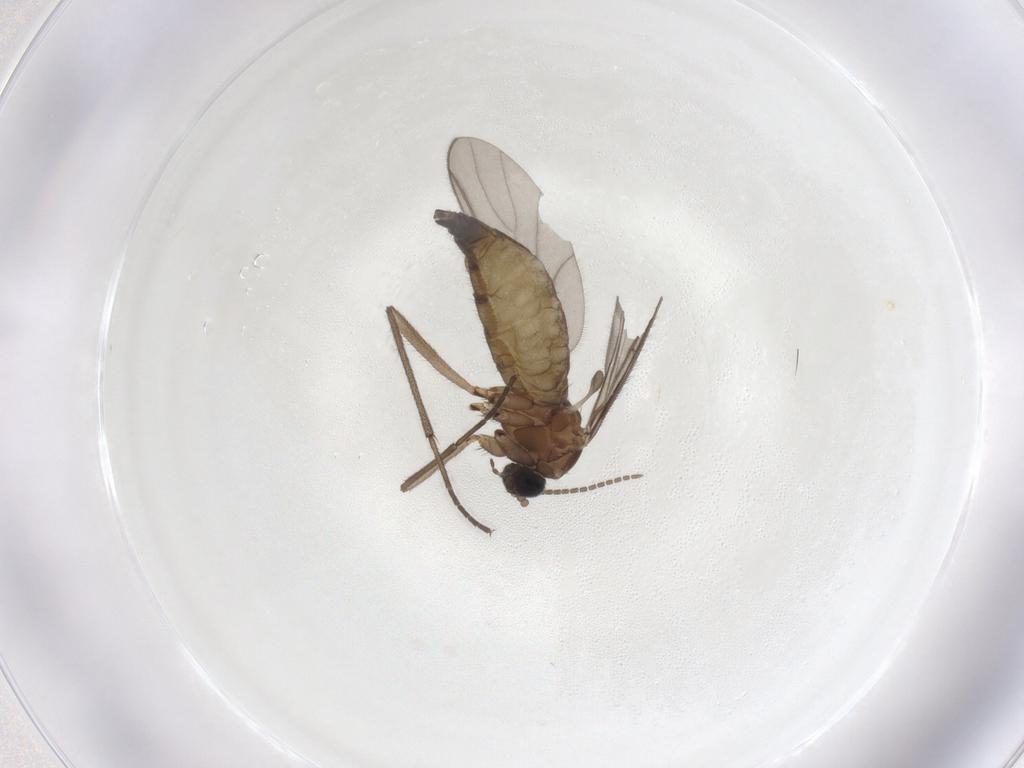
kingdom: Animalia
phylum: Arthropoda
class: Insecta
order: Diptera
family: Sciaridae
